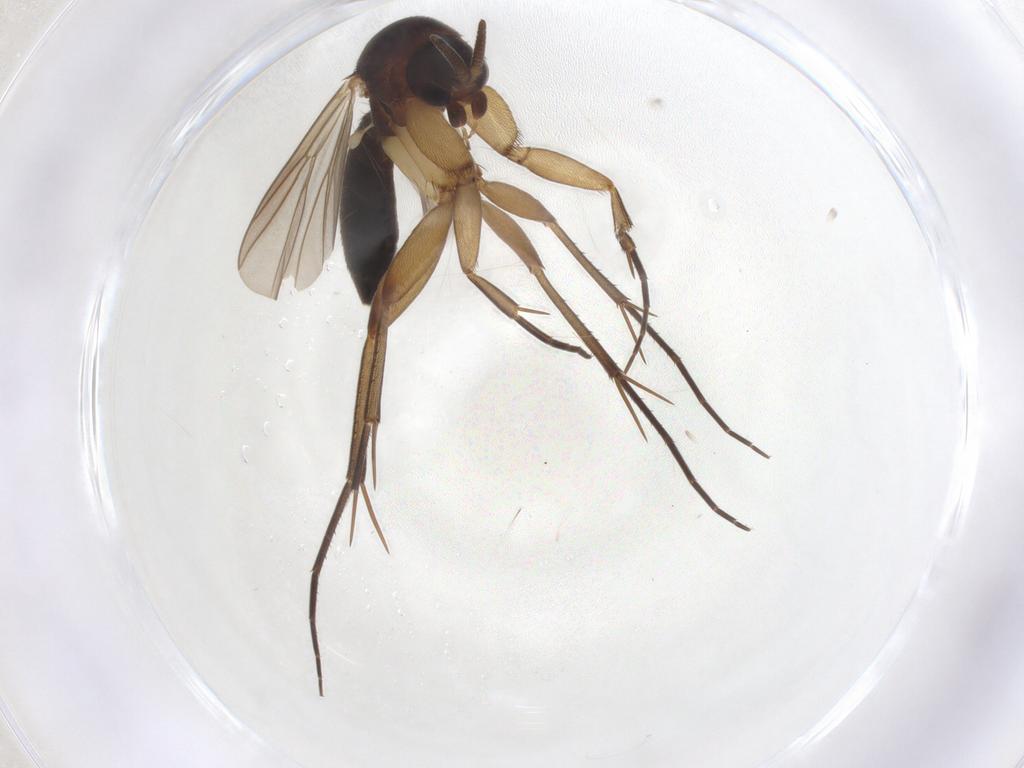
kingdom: Animalia
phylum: Arthropoda
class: Insecta
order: Diptera
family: Mycetophilidae
